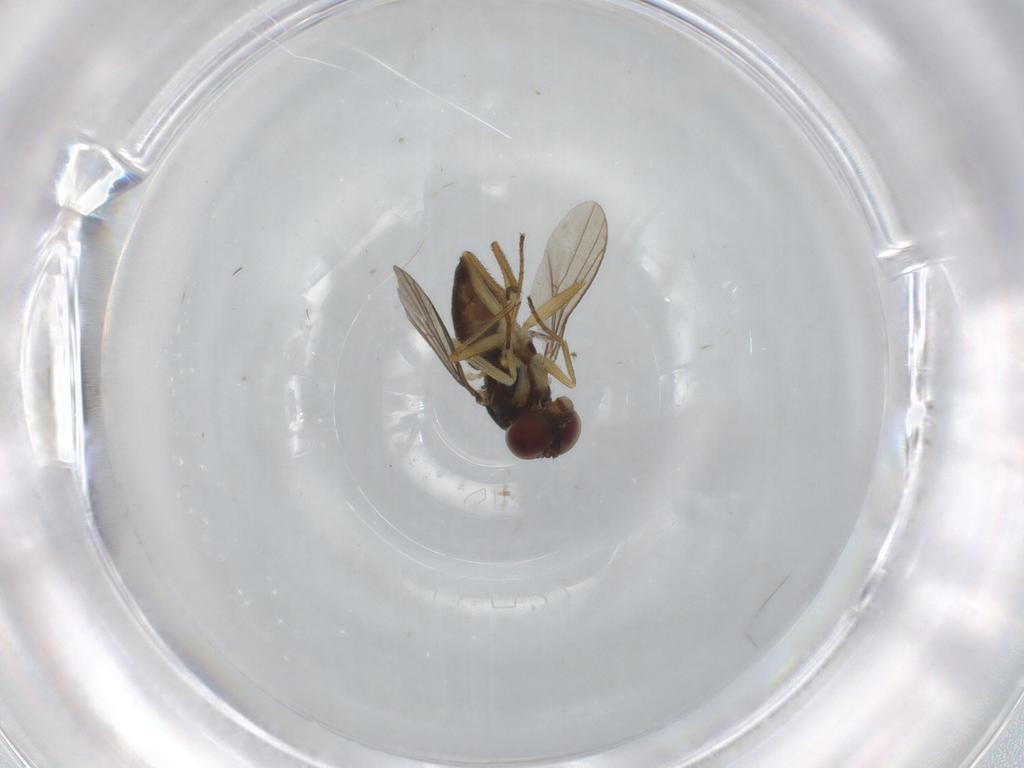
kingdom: Animalia
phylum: Arthropoda
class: Insecta
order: Diptera
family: Dolichopodidae
